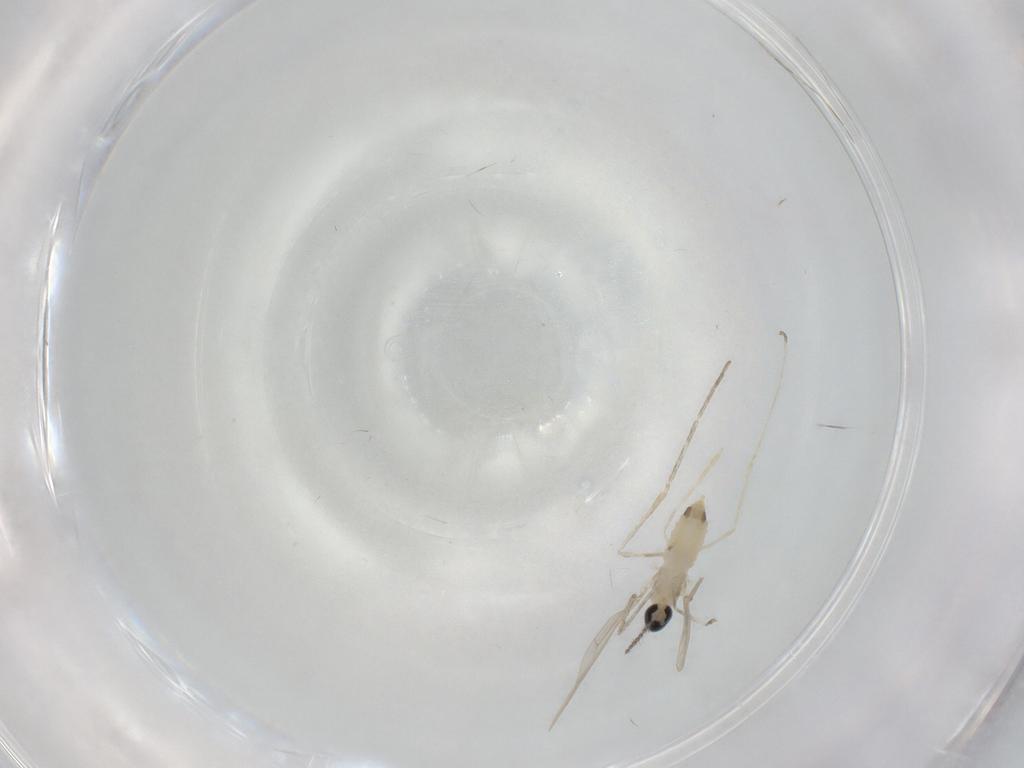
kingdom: Animalia
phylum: Arthropoda
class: Insecta
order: Diptera
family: Cecidomyiidae
